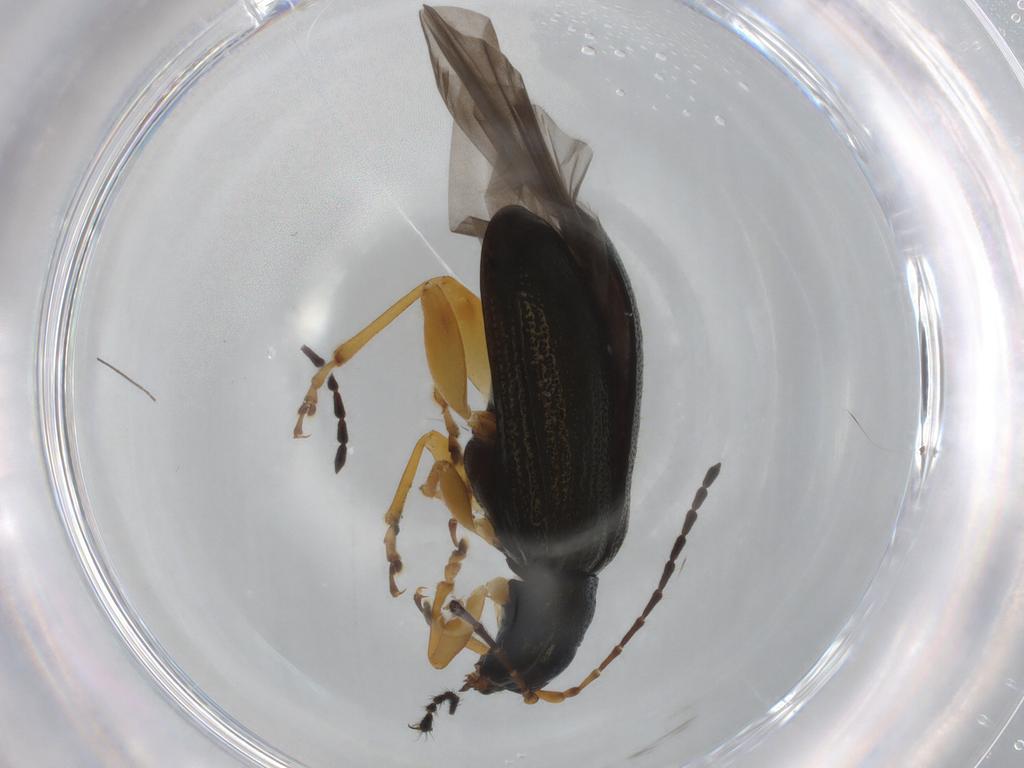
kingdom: Animalia
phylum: Arthropoda
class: Insecta
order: Coleoptera
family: Chrysomelidae
